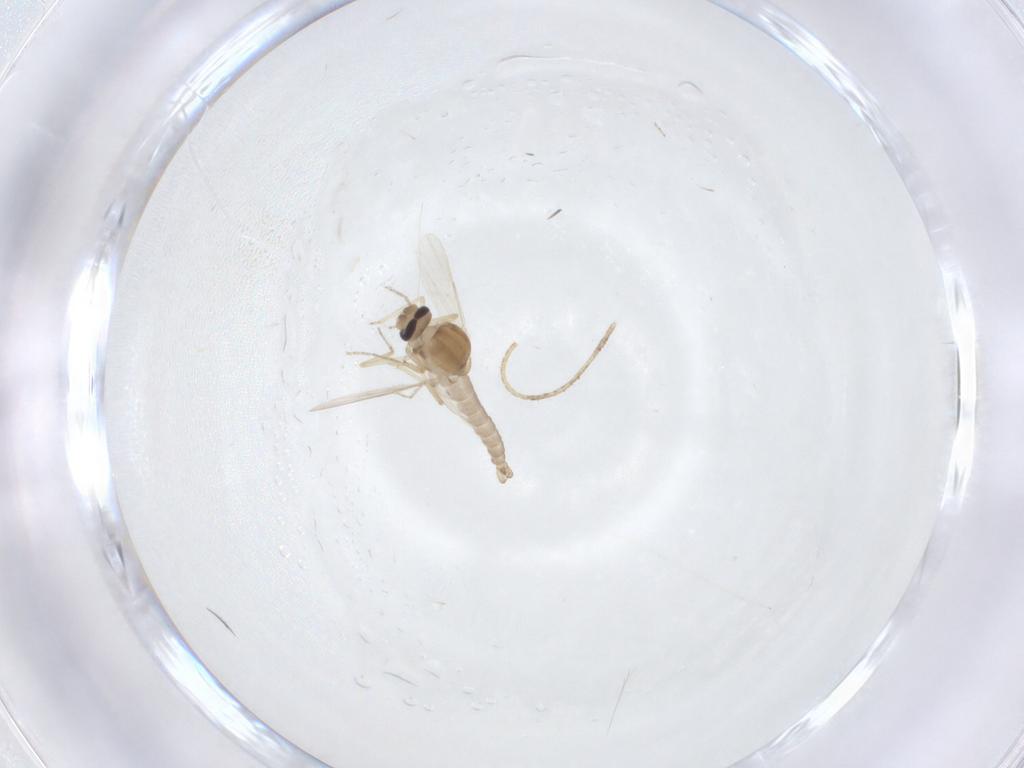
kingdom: Animalia
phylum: Arthropoda
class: Insecta
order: Diptera
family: Ceratopogonidae
